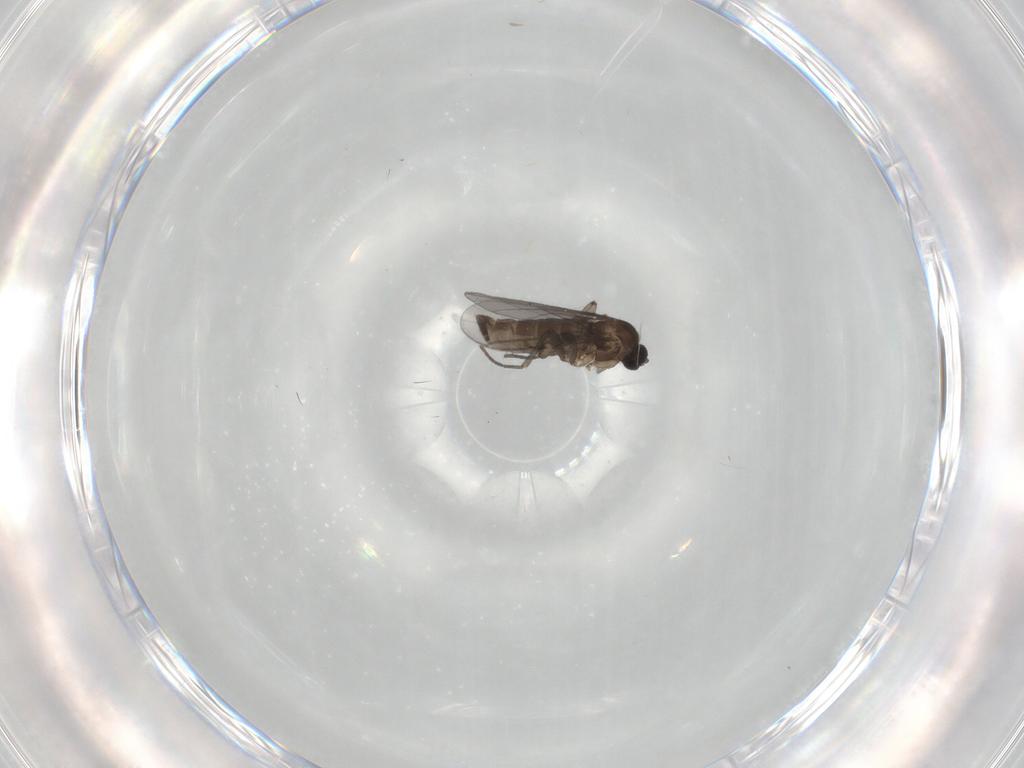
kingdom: Animalia
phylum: Arthropoda
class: Insecta
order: Diptera
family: Ditomyiidae
